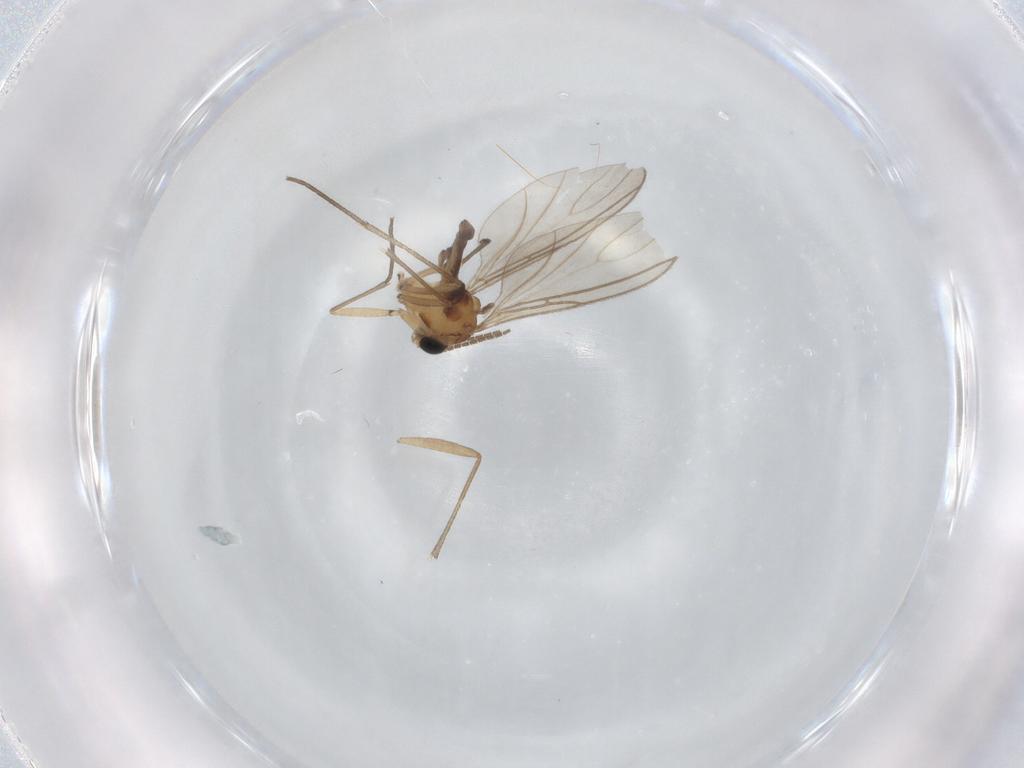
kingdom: Animalia
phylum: Arthropoda
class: Insecta
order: Diptera
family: Sciaridae
